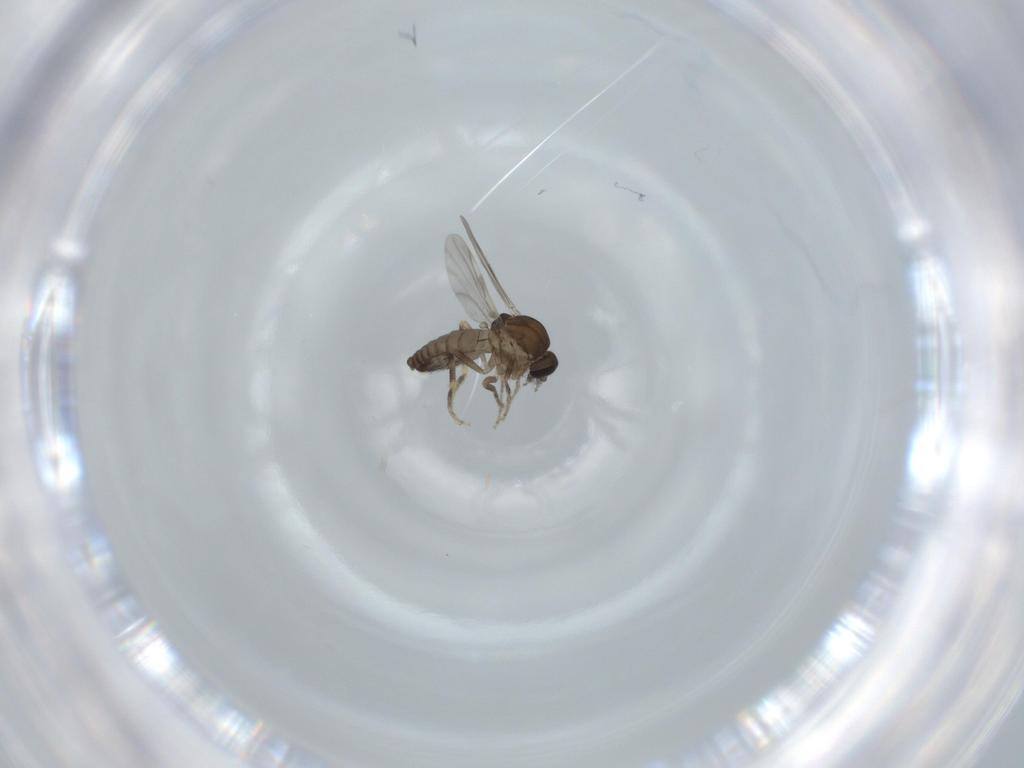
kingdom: Animalia
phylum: Arthropoda
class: Insecta
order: Diptera
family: Ceratopogonidae
